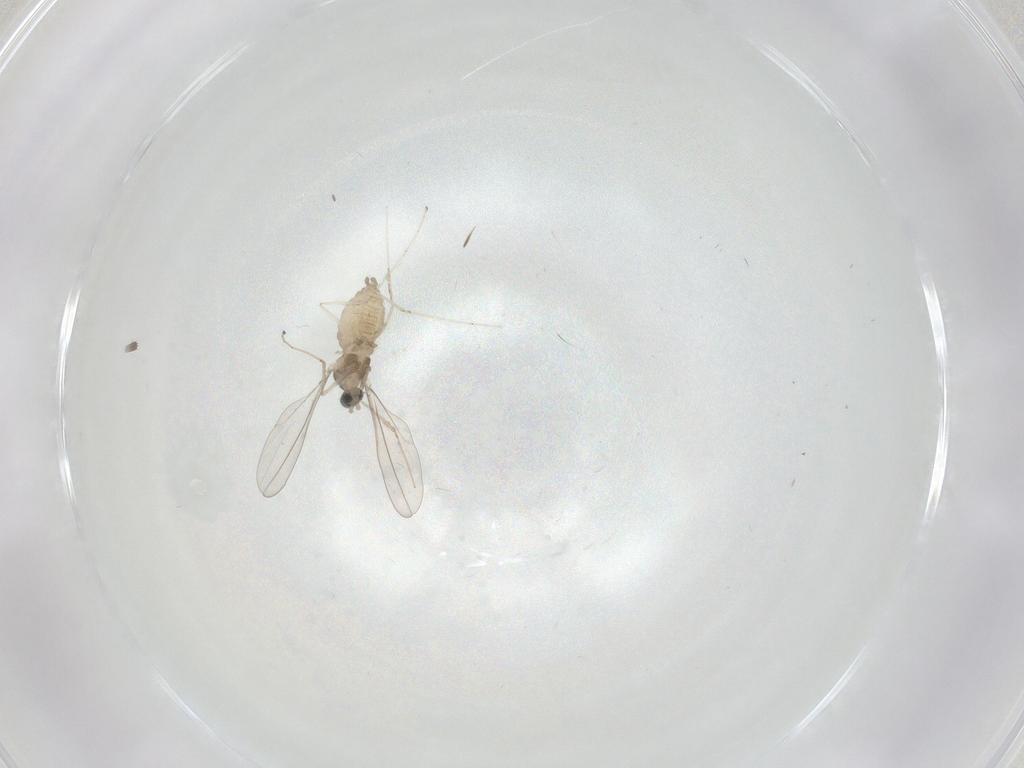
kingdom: Animalia
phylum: Arthropoda
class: Insecta
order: Diptera
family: Cecidomyiidae
